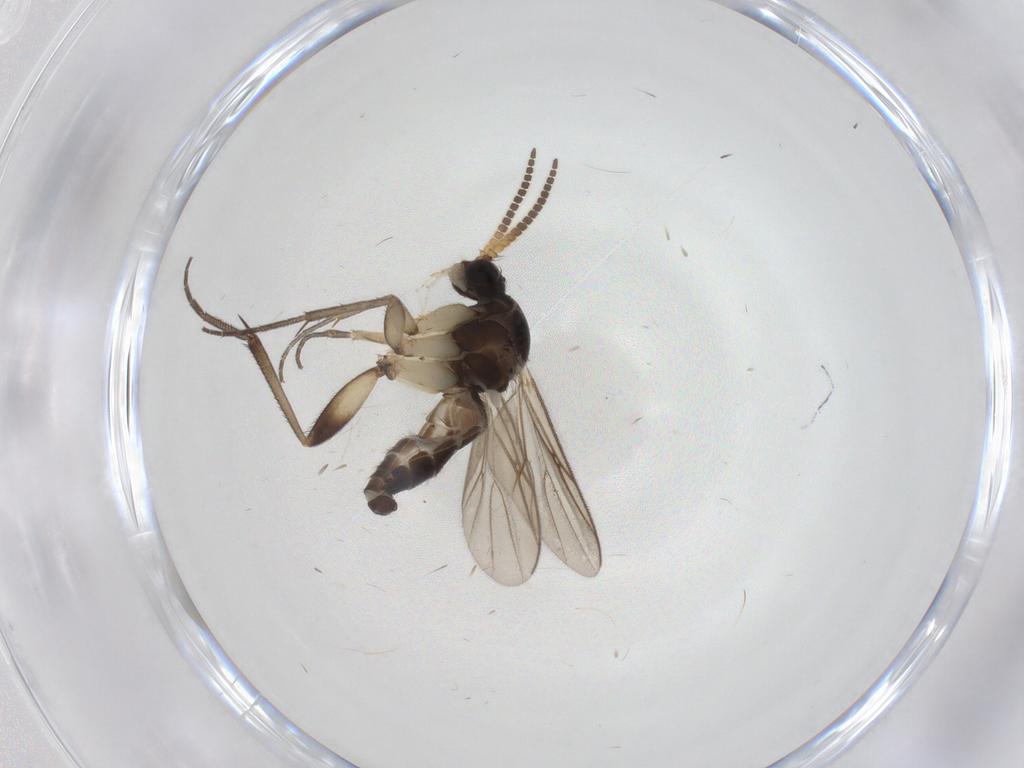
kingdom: Animalia
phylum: Arthropoda
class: Insecta
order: Diptera
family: Mycetophilidae
